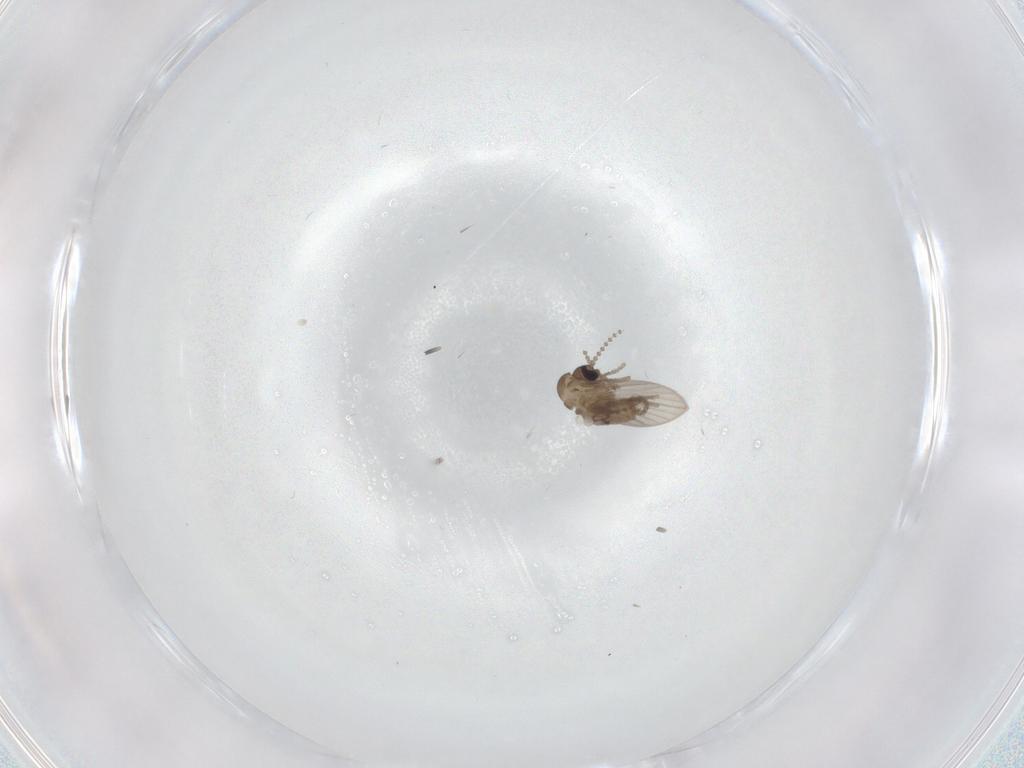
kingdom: Animalia
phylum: Arthropoda
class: Insecta
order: Diptera
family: Psychodidae
